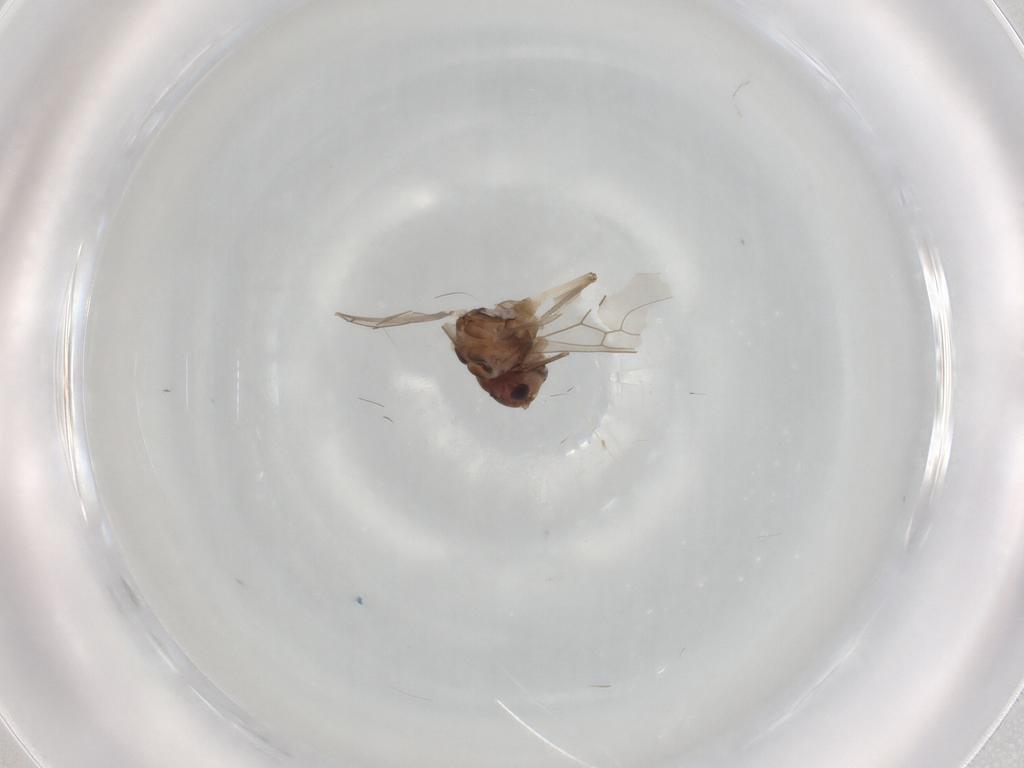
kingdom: Animalia
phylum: Arthropoda
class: Insecta
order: Psocodea
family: Peripsocidae
